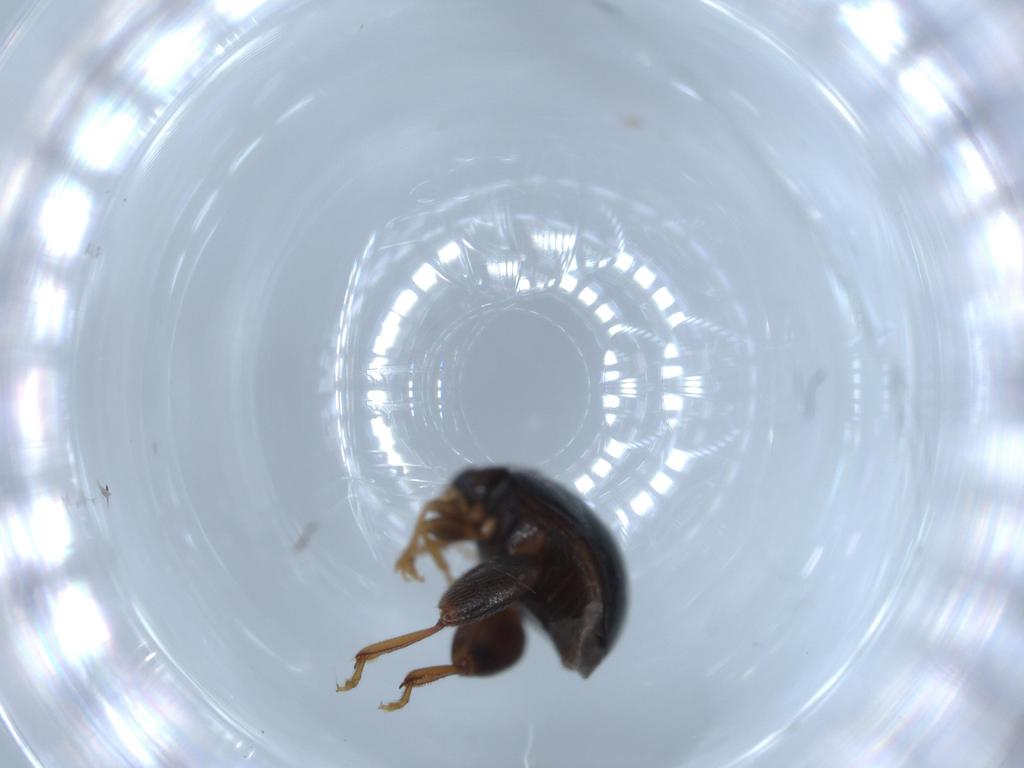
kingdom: Animalia
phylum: Arthropoda
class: Insecta
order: Coleoptera
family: Chrysomelidae
